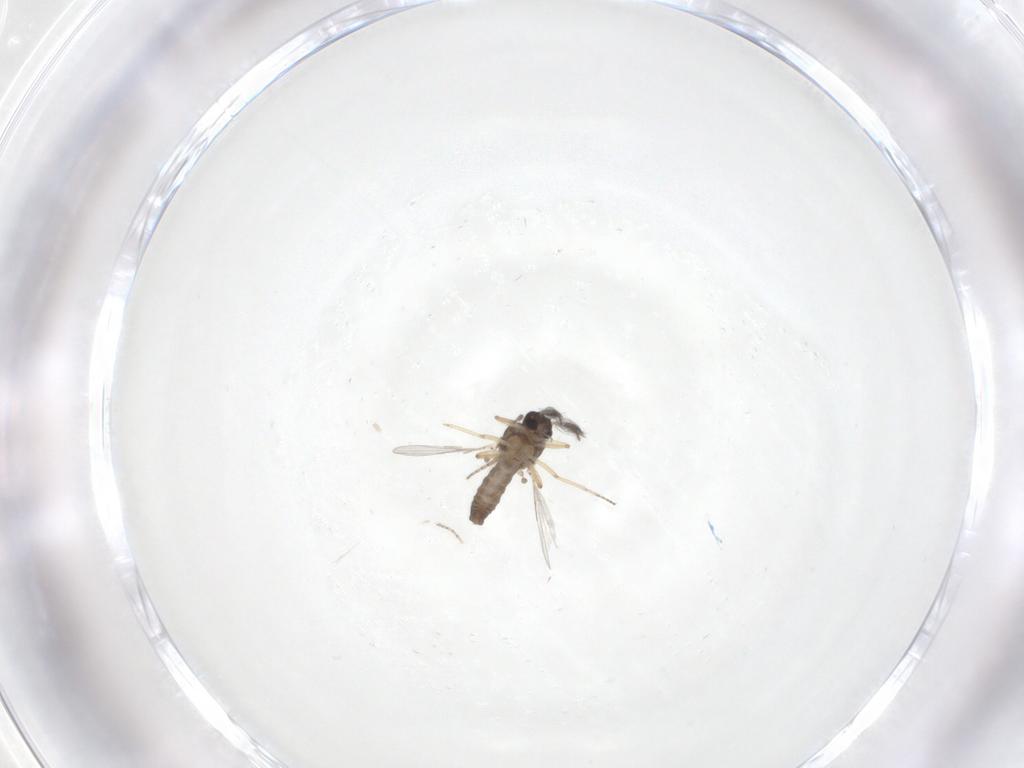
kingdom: Animalia
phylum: Arthropoda
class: Insecta
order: Diptera
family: Ceratopogonidae
